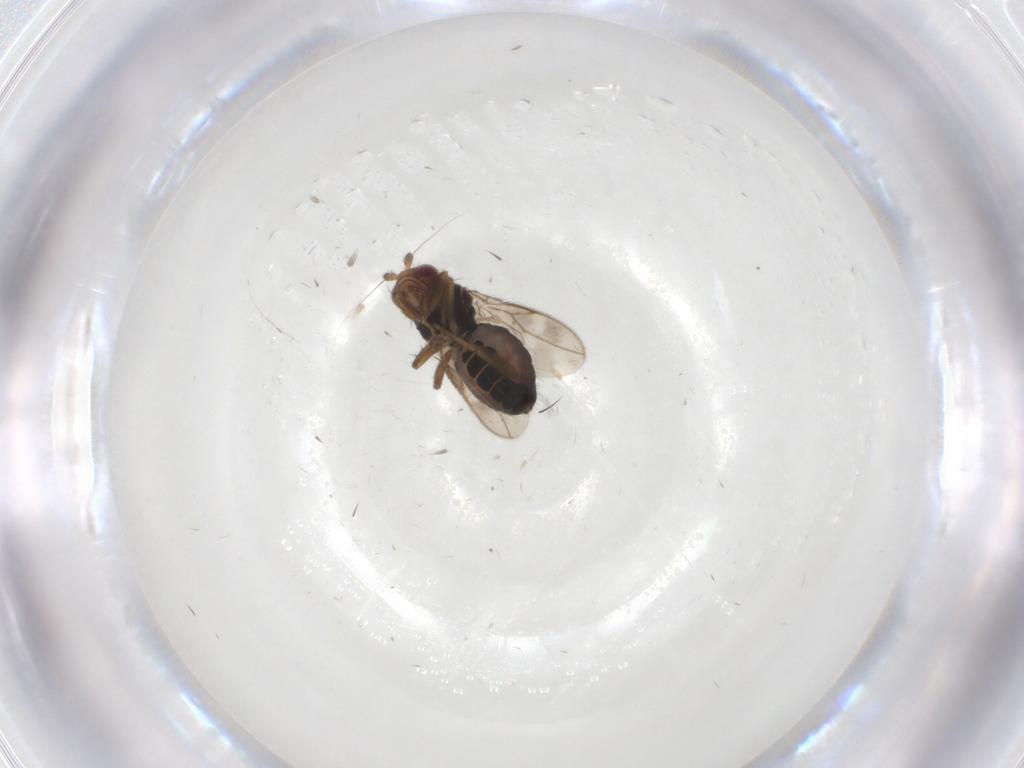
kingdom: Animalia
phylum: Arthropoda
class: Insecta
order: Diptera
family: Sphaeroceridae
